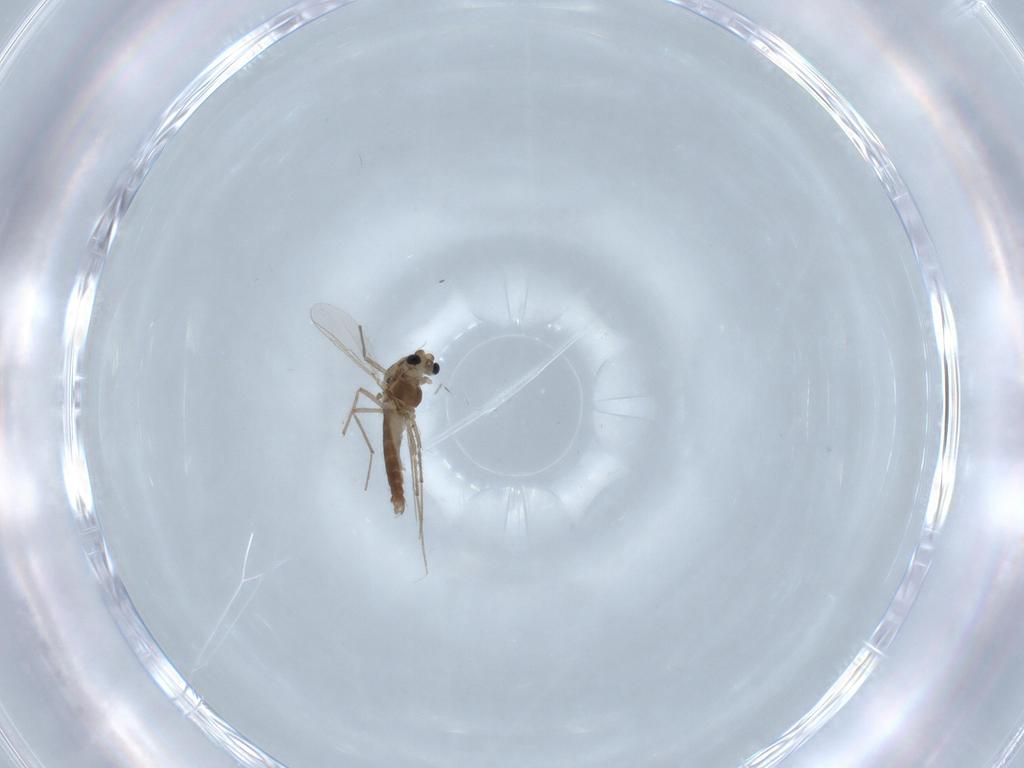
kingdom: Animalia
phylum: Arthropoda
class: Insecta
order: Diptera
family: Chironomidae
